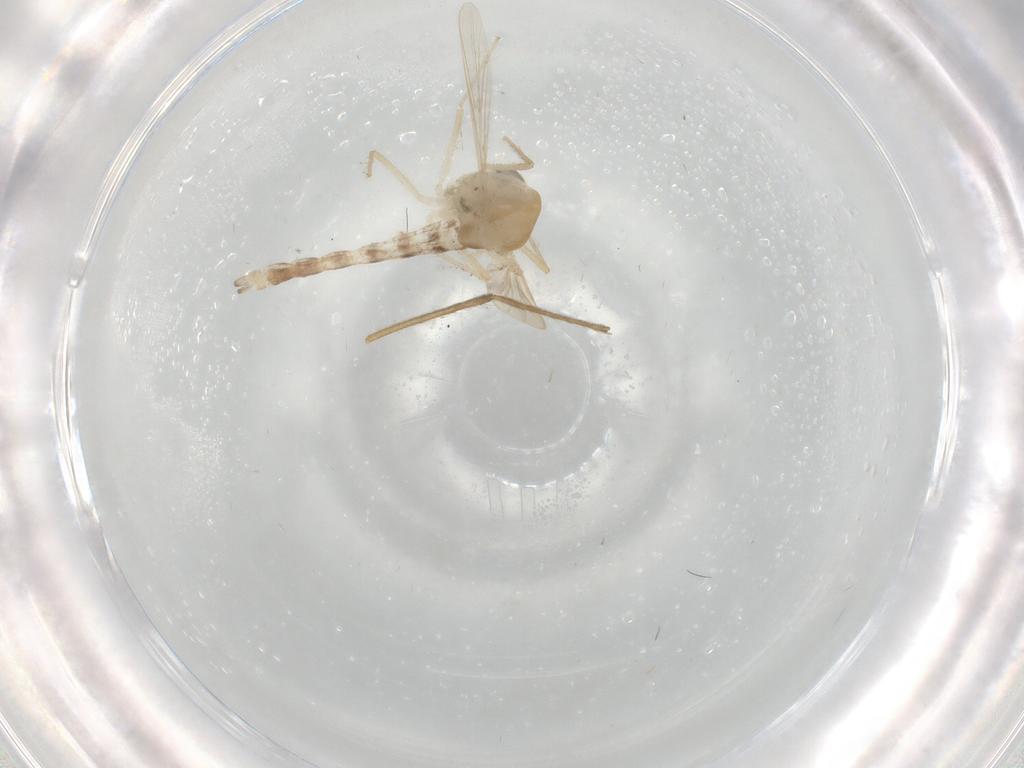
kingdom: Animalia
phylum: Arthropoda
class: Insecta
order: Diptera
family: Chironomidae
